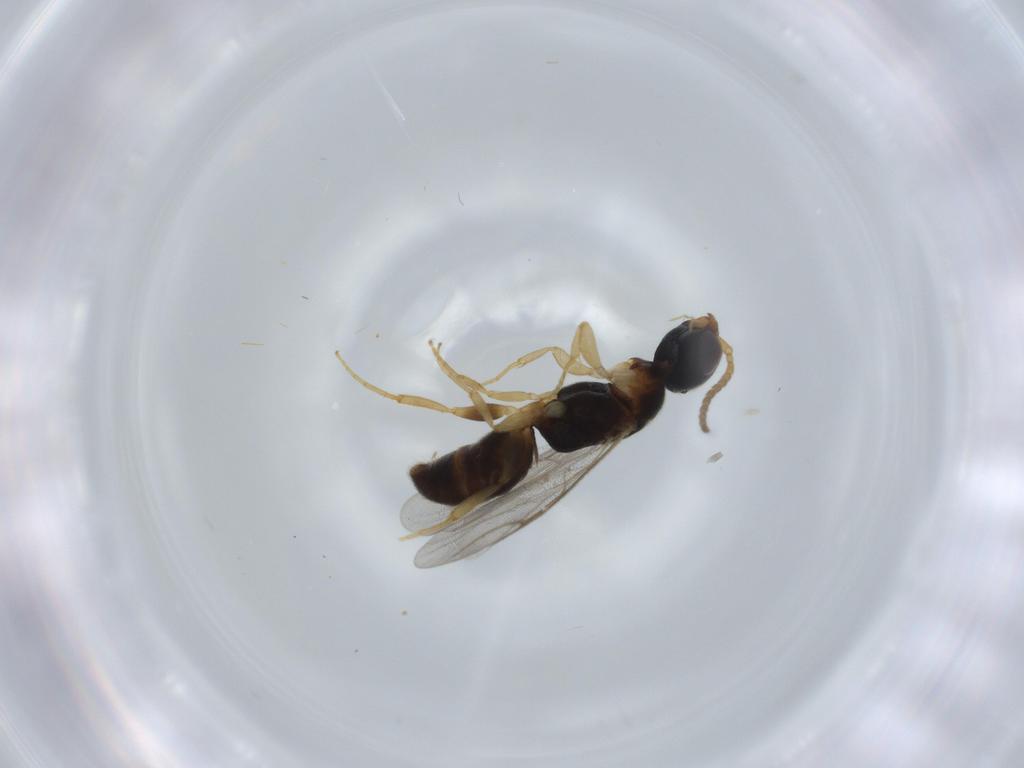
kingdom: Animalia
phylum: Arthropoda
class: Insecta
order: Hymenoptera
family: Bethylidae
